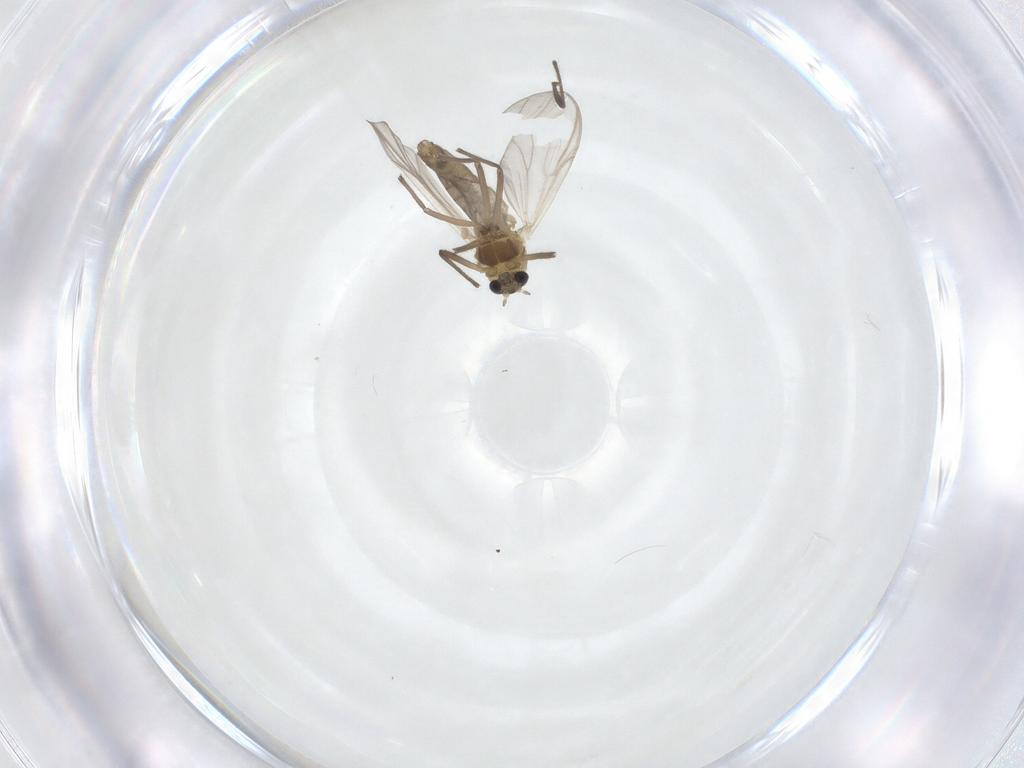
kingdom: Animalia
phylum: Arthropoda
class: Insecta
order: Diptera
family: Chironomidae
